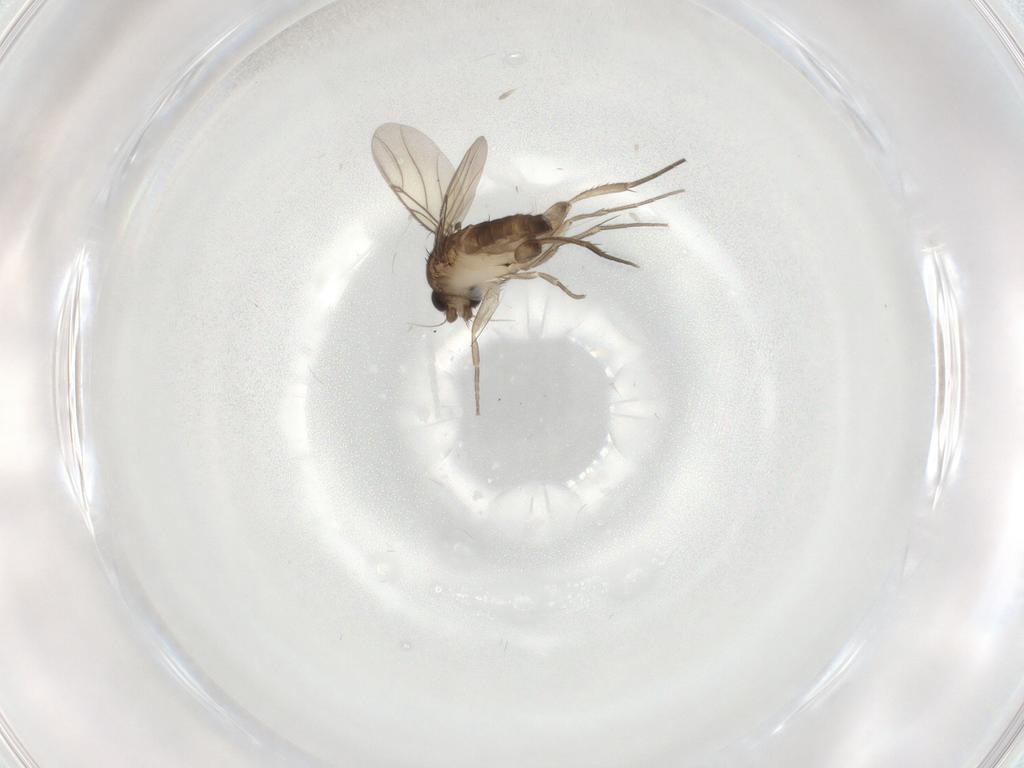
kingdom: Animalia
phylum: Arthropoda
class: Insecta
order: Diptera
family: Phoridae
